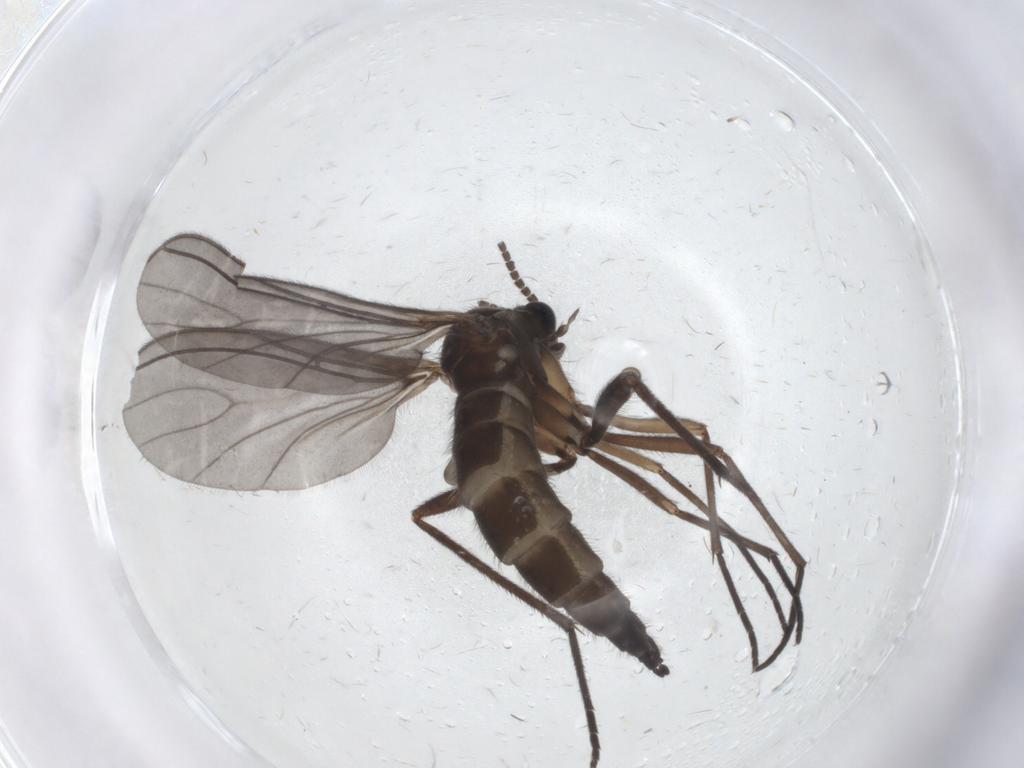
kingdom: Animalia
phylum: Arthropoda
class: Insecta
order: Diptera
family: Sciaridae
